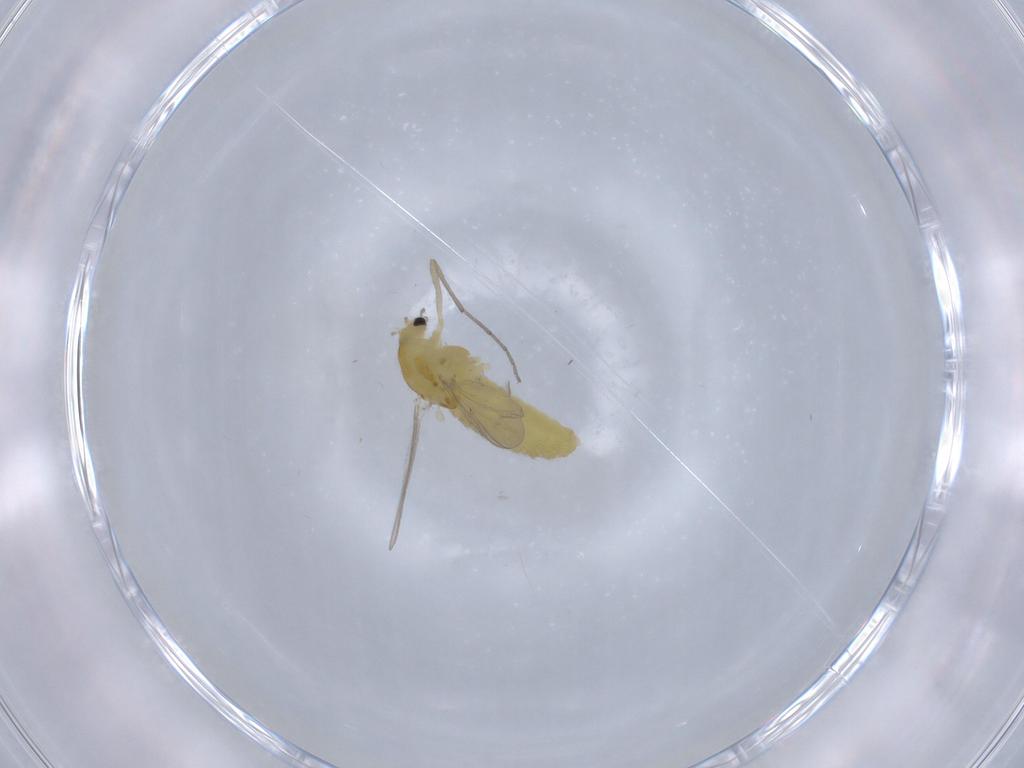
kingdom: Animalia
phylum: Arthropoda
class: Insecta
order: Diptera
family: Chironomidae
